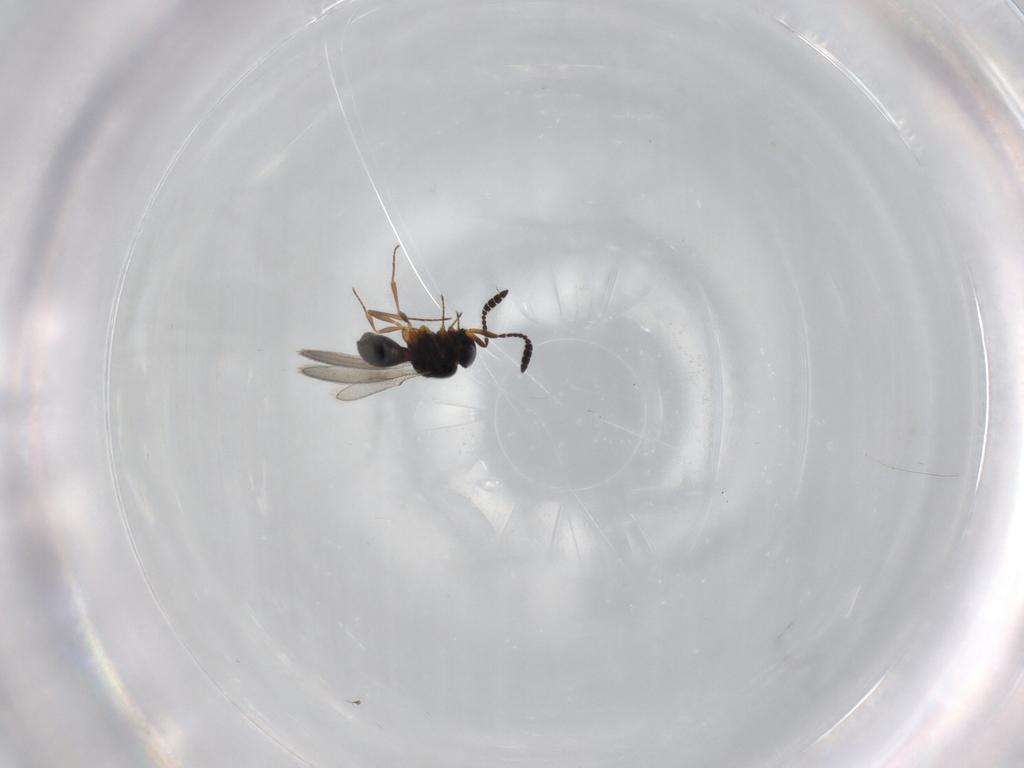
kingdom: Animalia
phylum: Arthropoda
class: Insecta
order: Hymenoptera
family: Scelionidae
